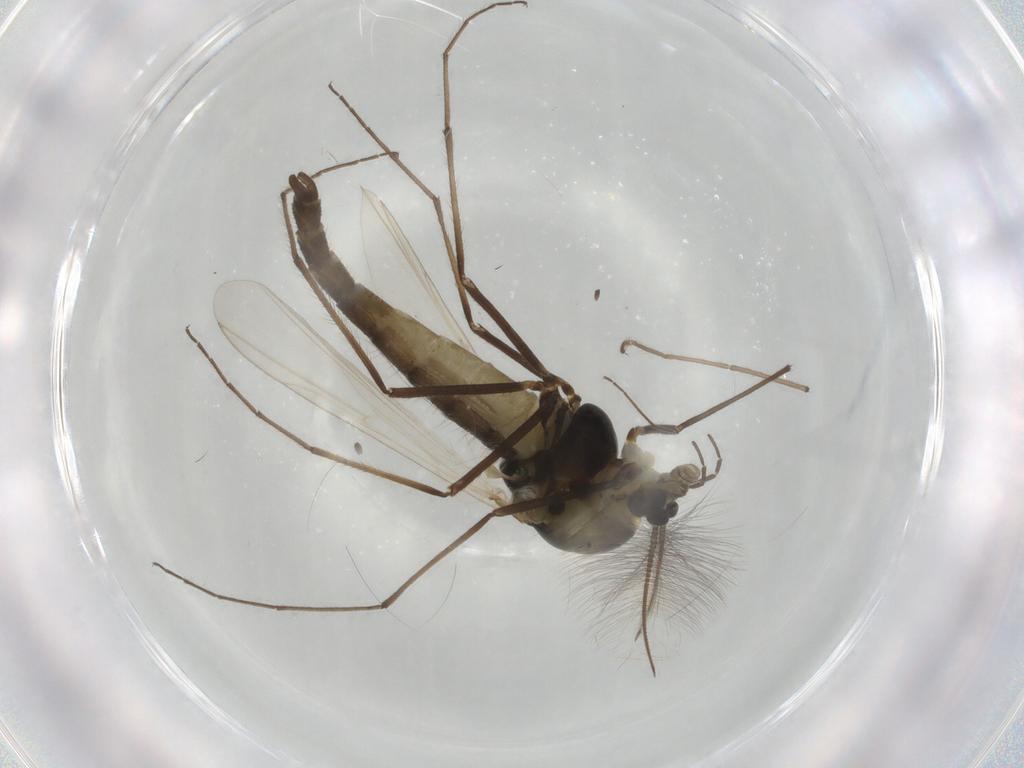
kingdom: Animalia
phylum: Arthropoda
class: Insecta
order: Diptera
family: Chironomidae
